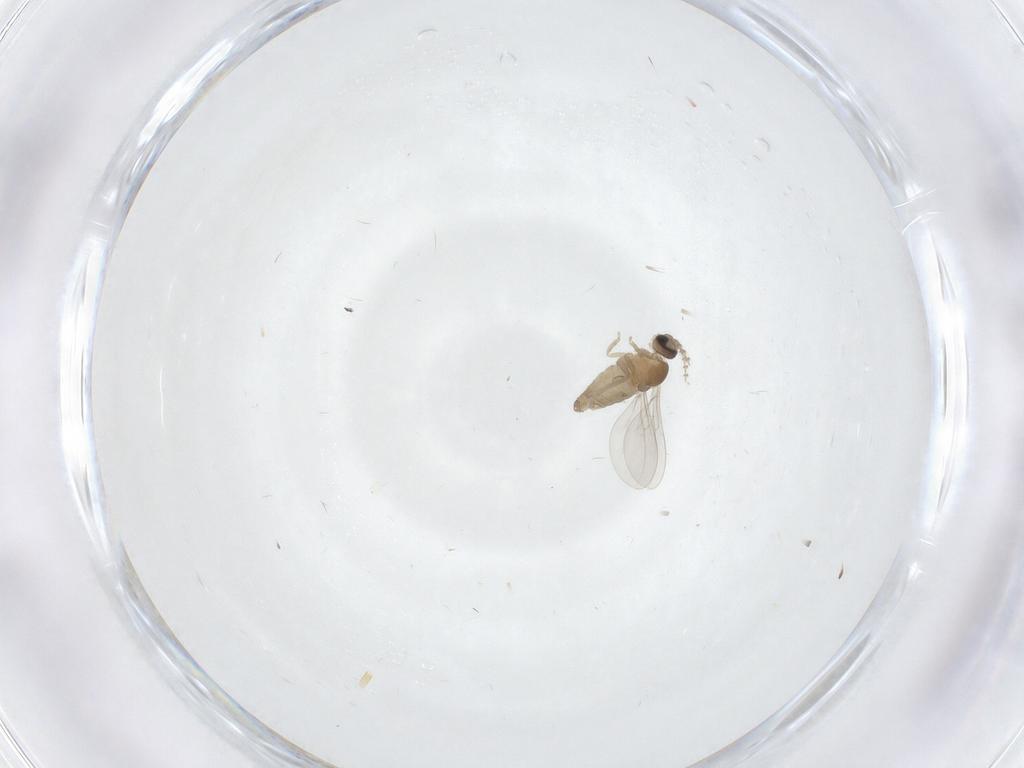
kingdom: Animalia
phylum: Arthropoda
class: Insecta
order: Diptera
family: Cecidomyiidae
